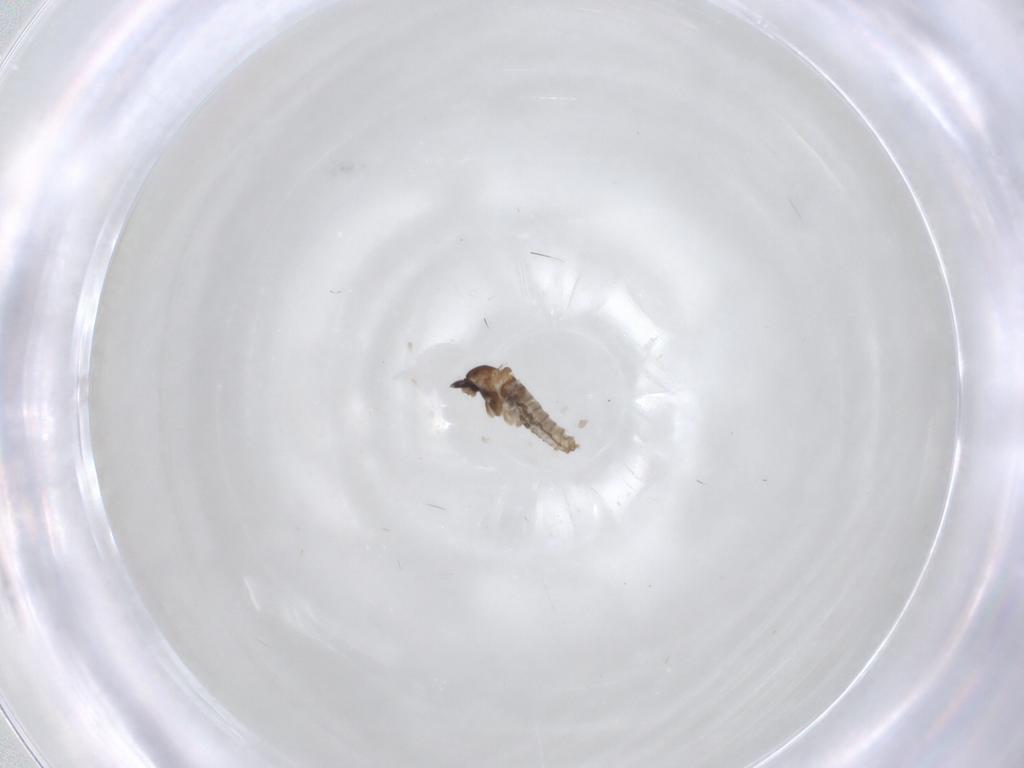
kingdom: Animalia
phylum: Arthropoda
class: Insecta
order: Diptera
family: Cecidomyiidae
